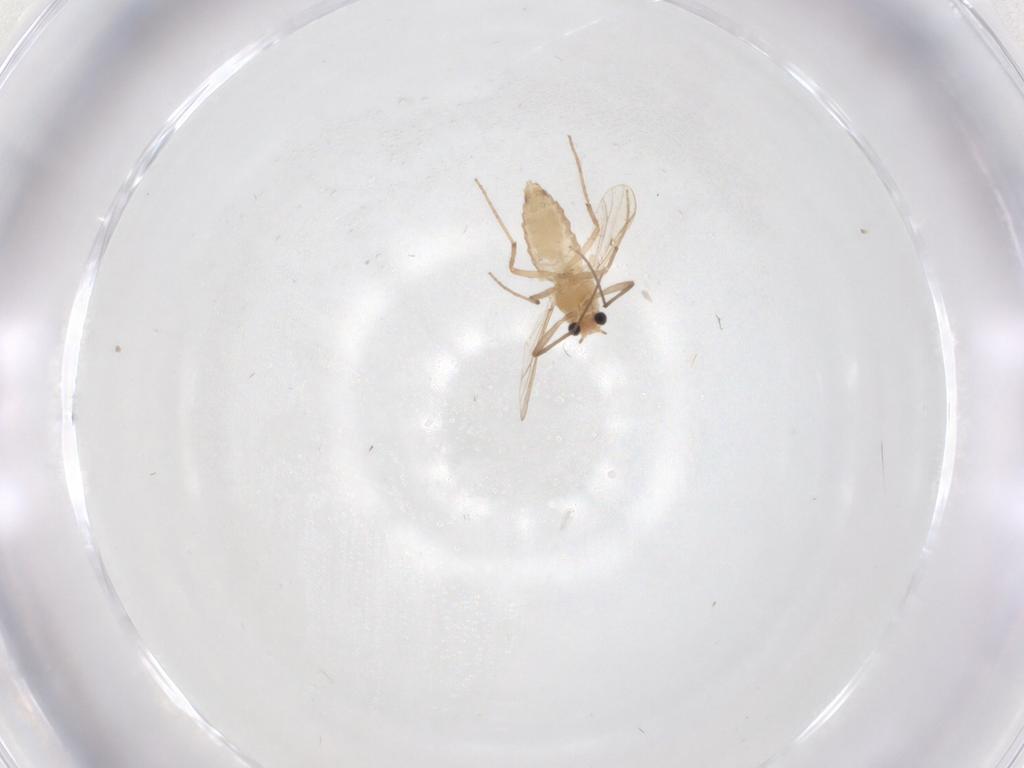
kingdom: Animalia
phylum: Arthropoda
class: Insecta
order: Diptera
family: Chironomidae
